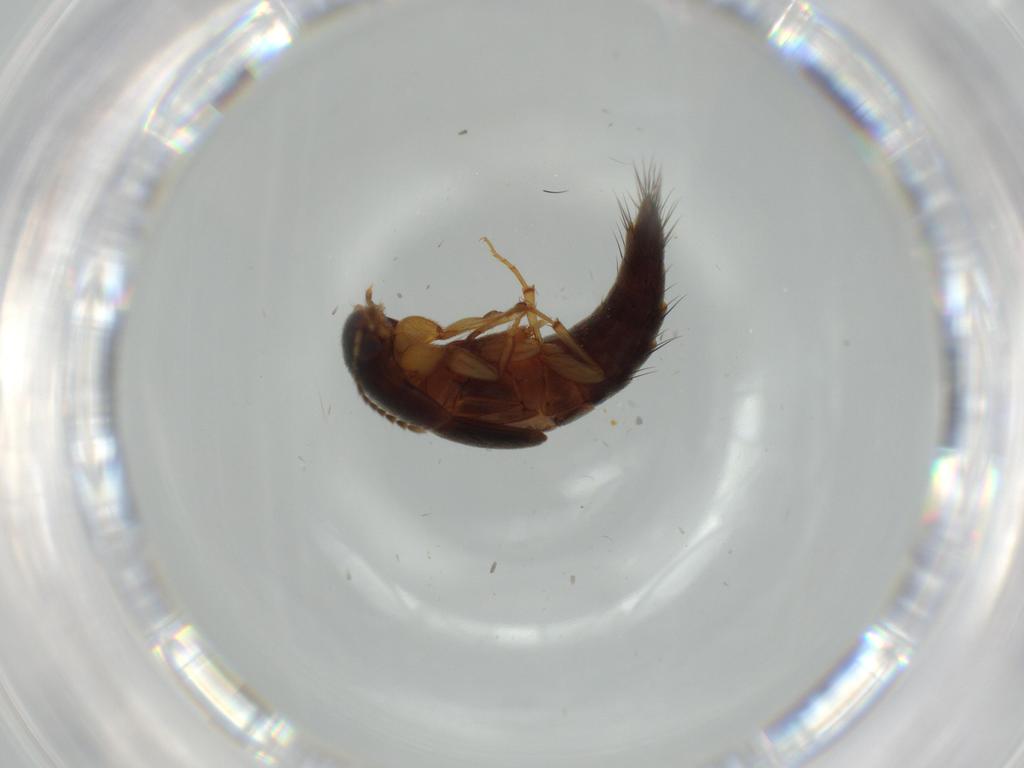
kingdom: Animalia
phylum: Arthropoda
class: Insecta
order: Coleoptera
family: Staphylinidae
